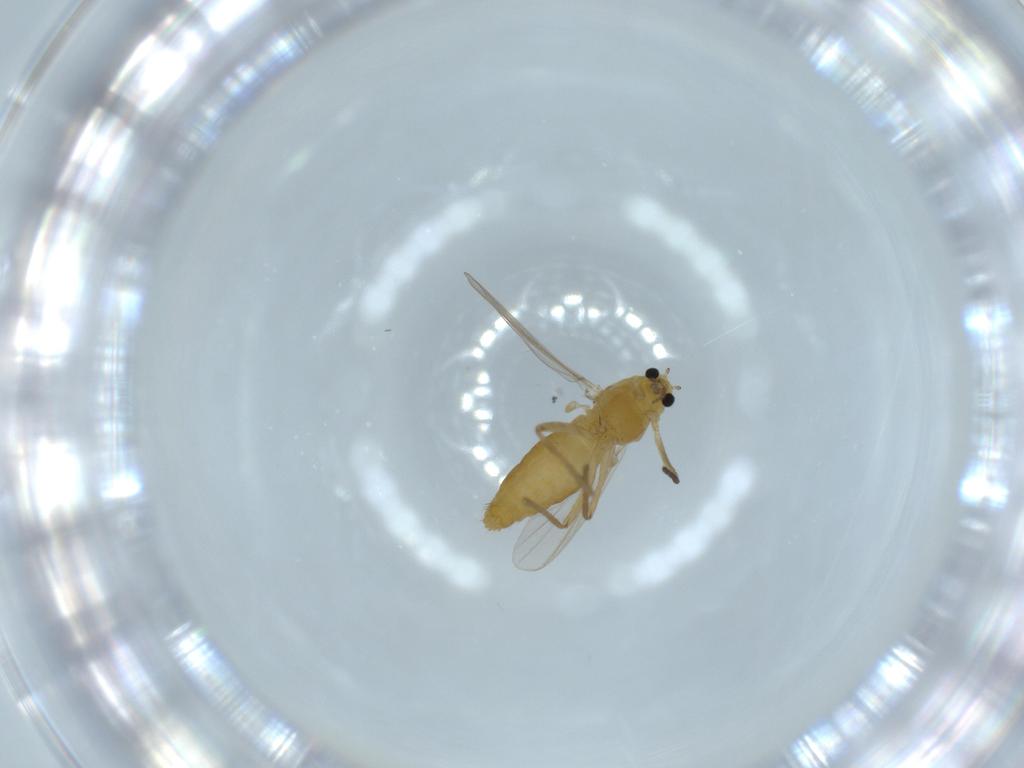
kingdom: Animalia
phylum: Arthropoda
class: Insecta
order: Diptera
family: Chironomidae
